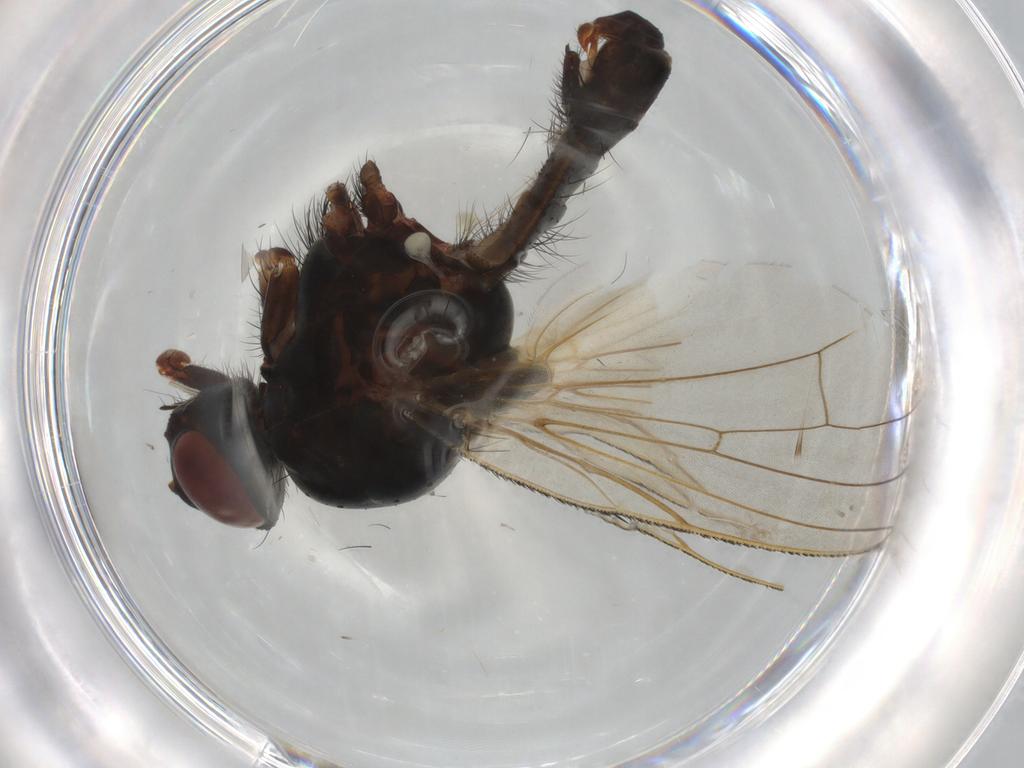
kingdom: Animalia
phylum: Arthropoda
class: Insecta
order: Diptera
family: Anthomyiidae
